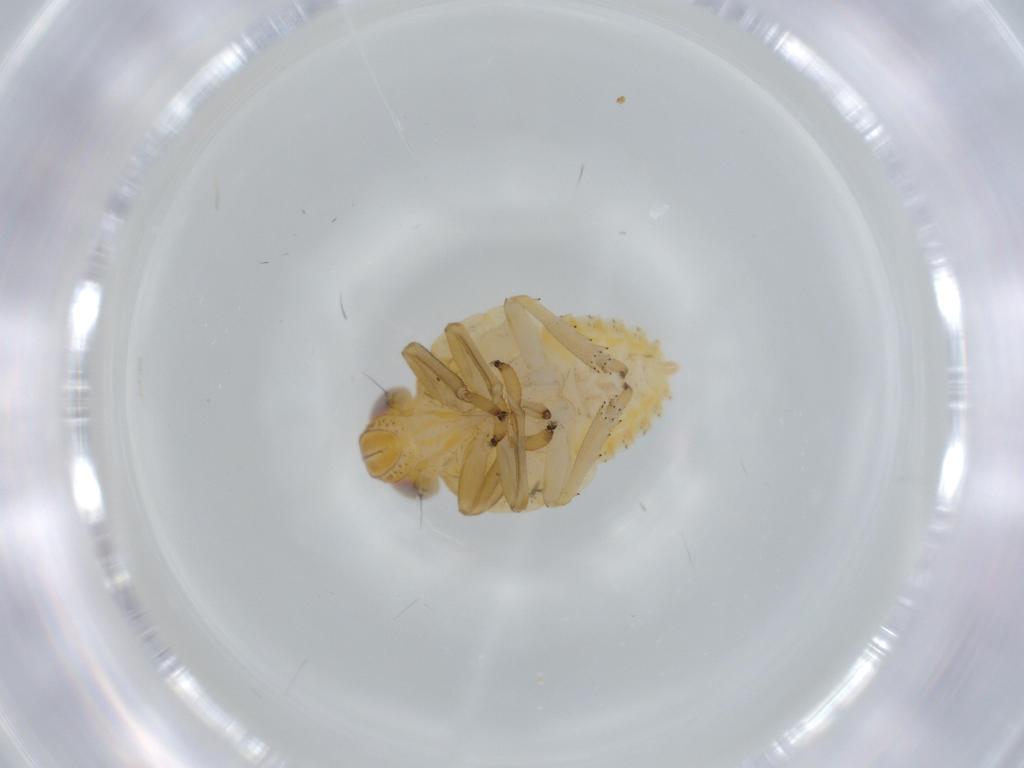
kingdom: Animalia
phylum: Arthropoda
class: Insecta
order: Hemiptera
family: Issidae
